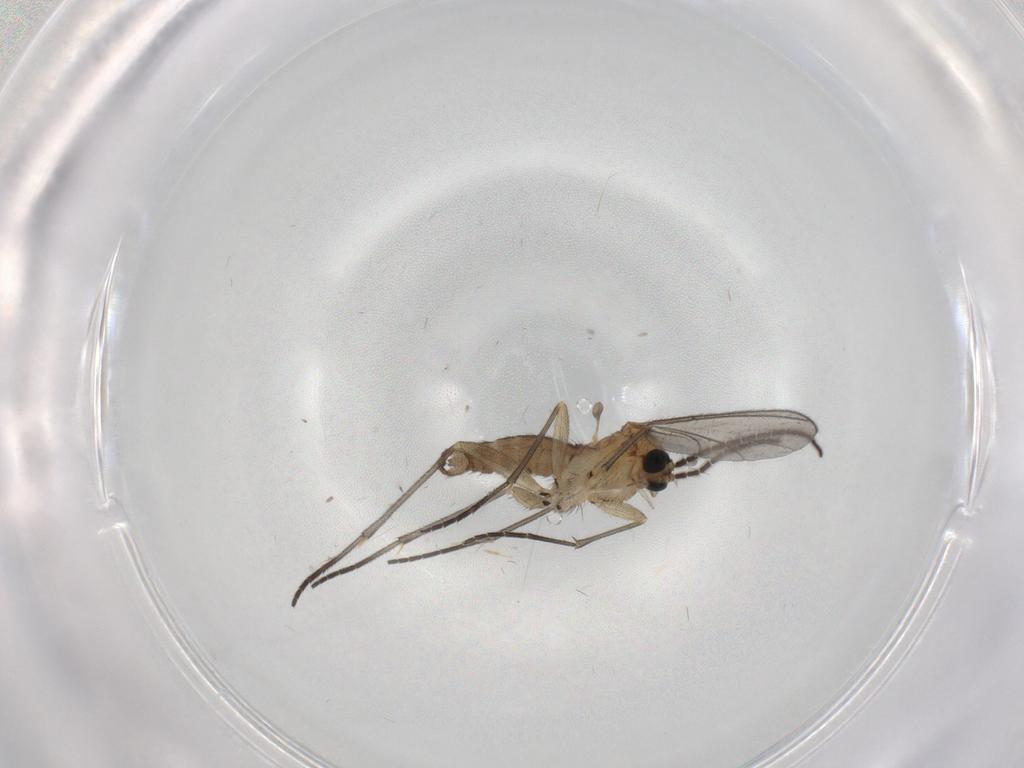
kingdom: Animalia
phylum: Arthropoda
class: Insecta
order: Diptera
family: Sciaridae
